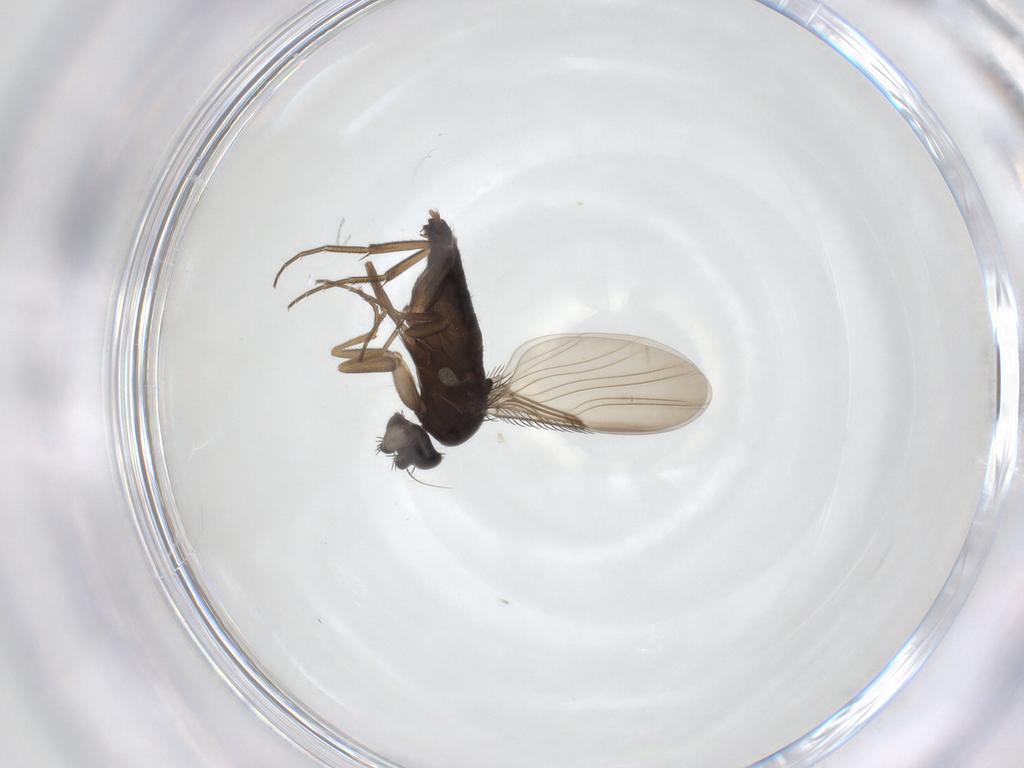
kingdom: Animalia
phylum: Arthropoda
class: Insecta
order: Diptera
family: Phoridae
